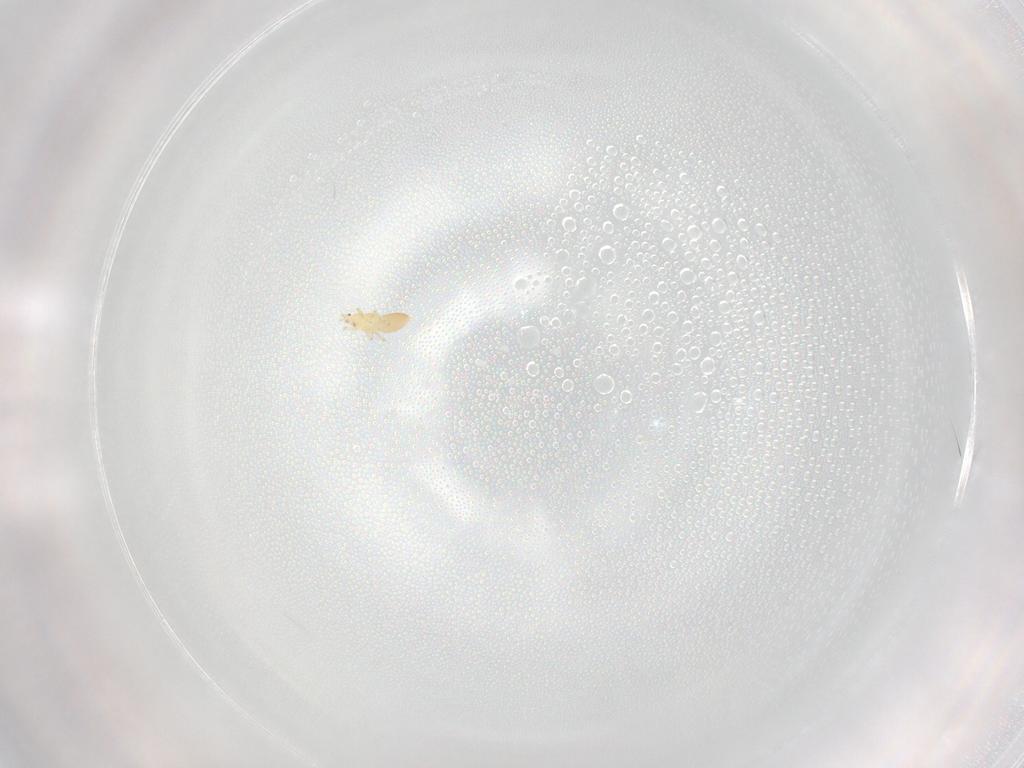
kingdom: Animalia
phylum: Arthropoda
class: Insecta
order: Thysanoptera
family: Thripidae
